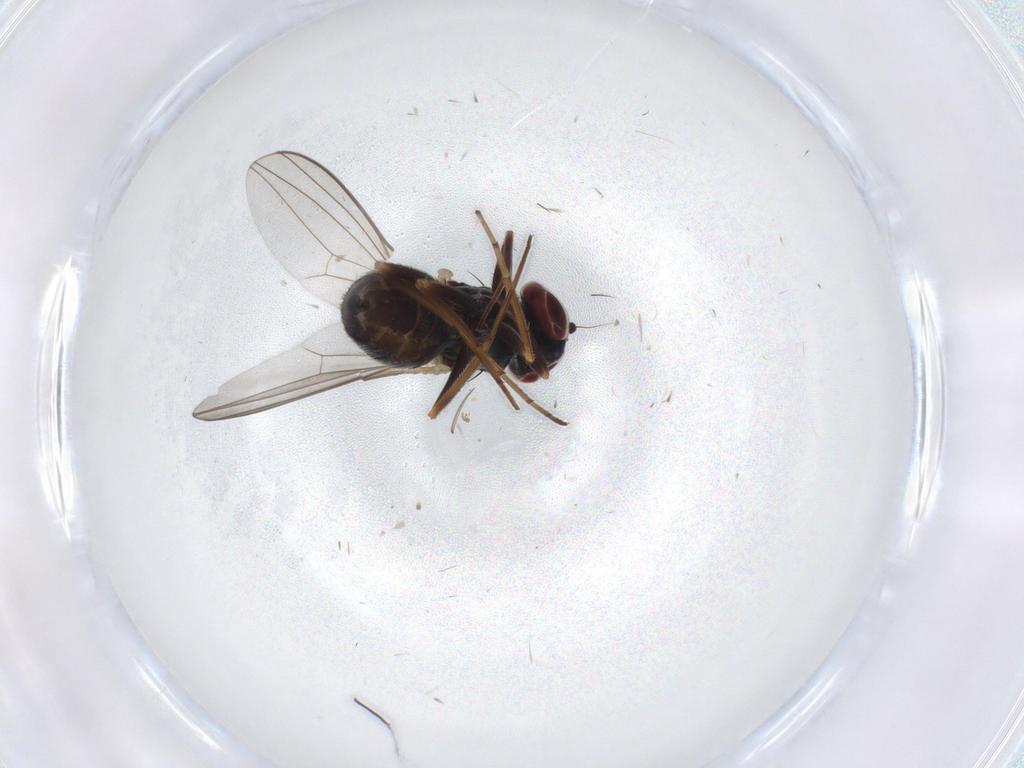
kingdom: Animalia
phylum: Arthropoda
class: Insecta
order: Diptera
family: Dolichopodidae
